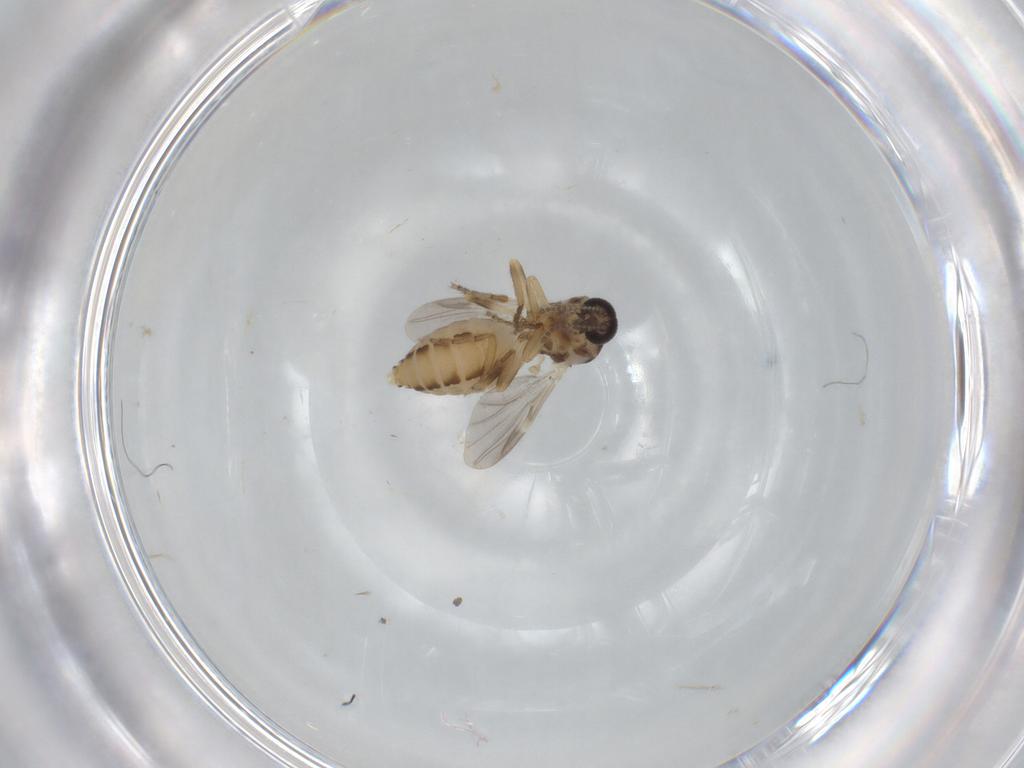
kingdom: Animalia
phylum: Arthropoda
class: Insecta
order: Diptera
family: Ceratopogonidae
